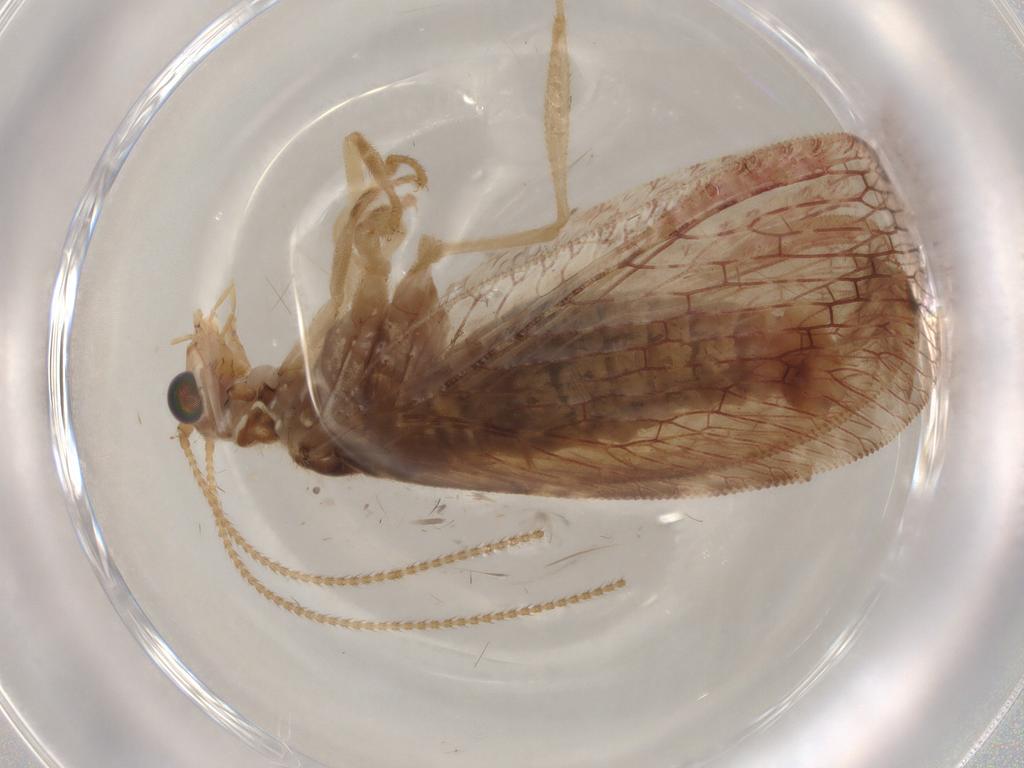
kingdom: Animalia
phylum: Arthropoda
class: Insecta
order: Neuroptera
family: Hemerobiidae
